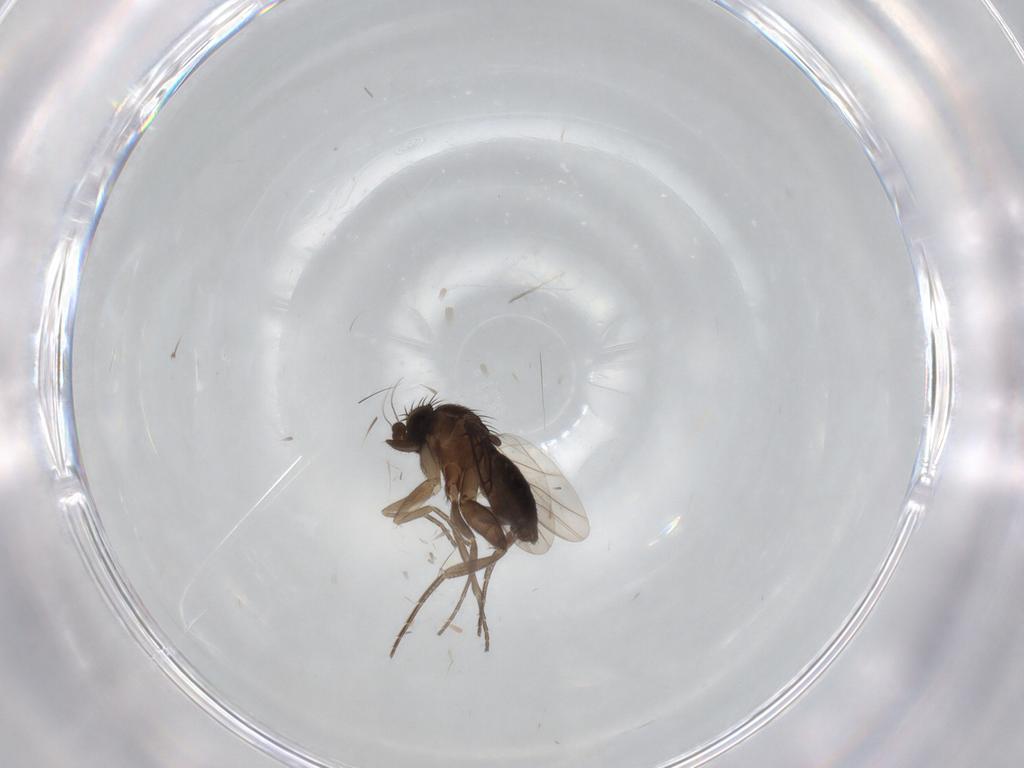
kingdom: Animalia
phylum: Arthropoda
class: Insecta
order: Diptera
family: Phoridae
